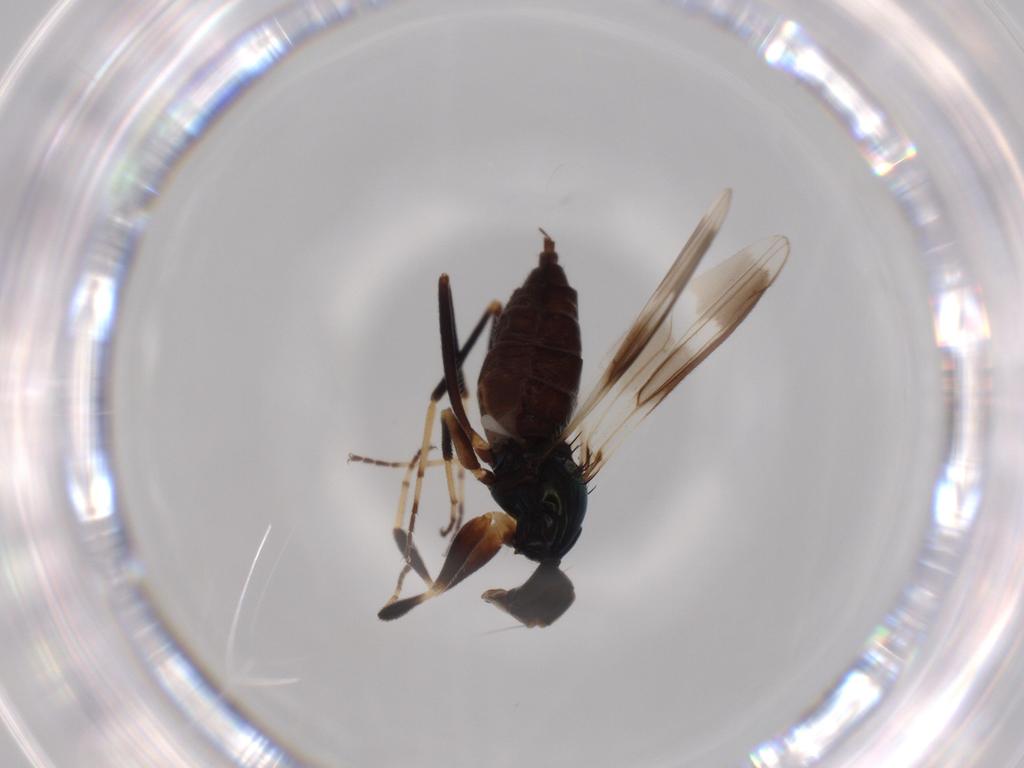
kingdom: Animalia
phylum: Arthropoda
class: Insecta
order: Diptera
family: Hybotidae
